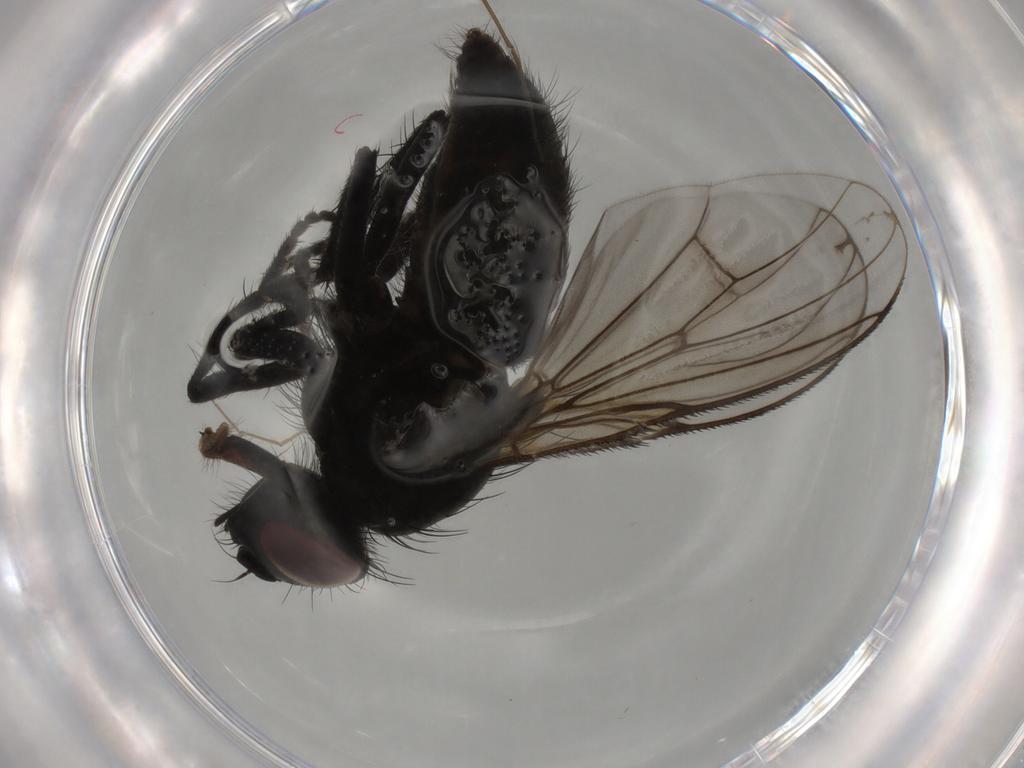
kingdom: Animalia
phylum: Arthropoda
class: Insecta
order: Diptera
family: Muscidae
